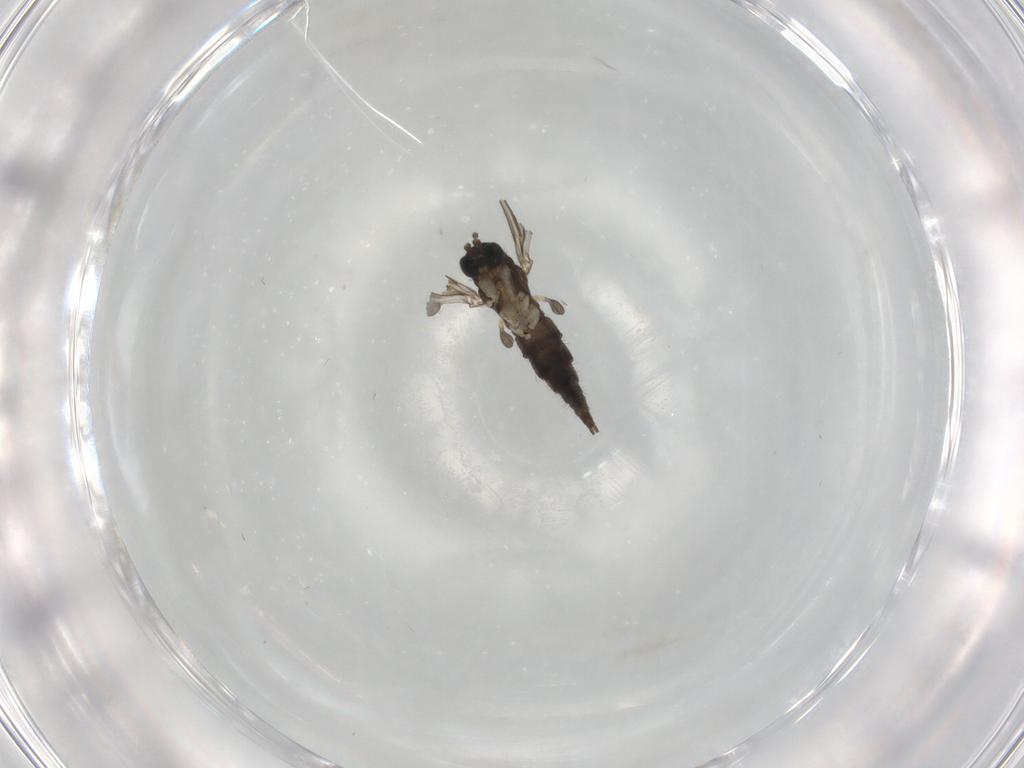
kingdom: Animalia
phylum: Arthropoda
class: Insecta
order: Diptera
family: Sciaridae
